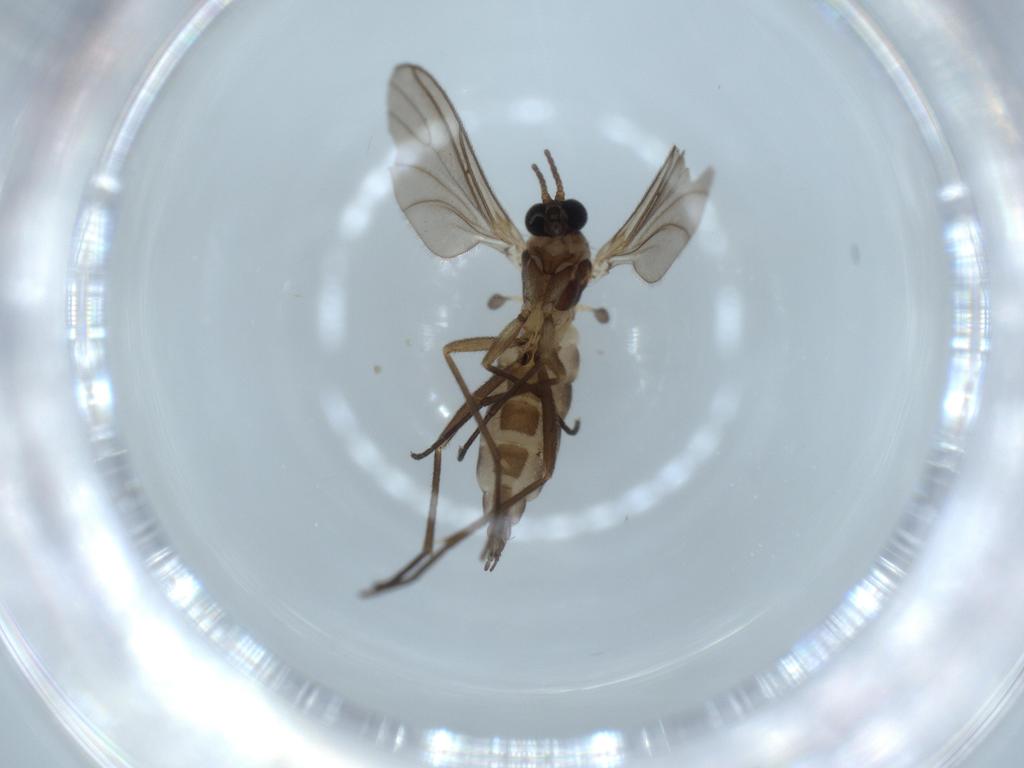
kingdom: Animalia
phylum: Arthropoda
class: Insecta
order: Diptera
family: Sciaridae
